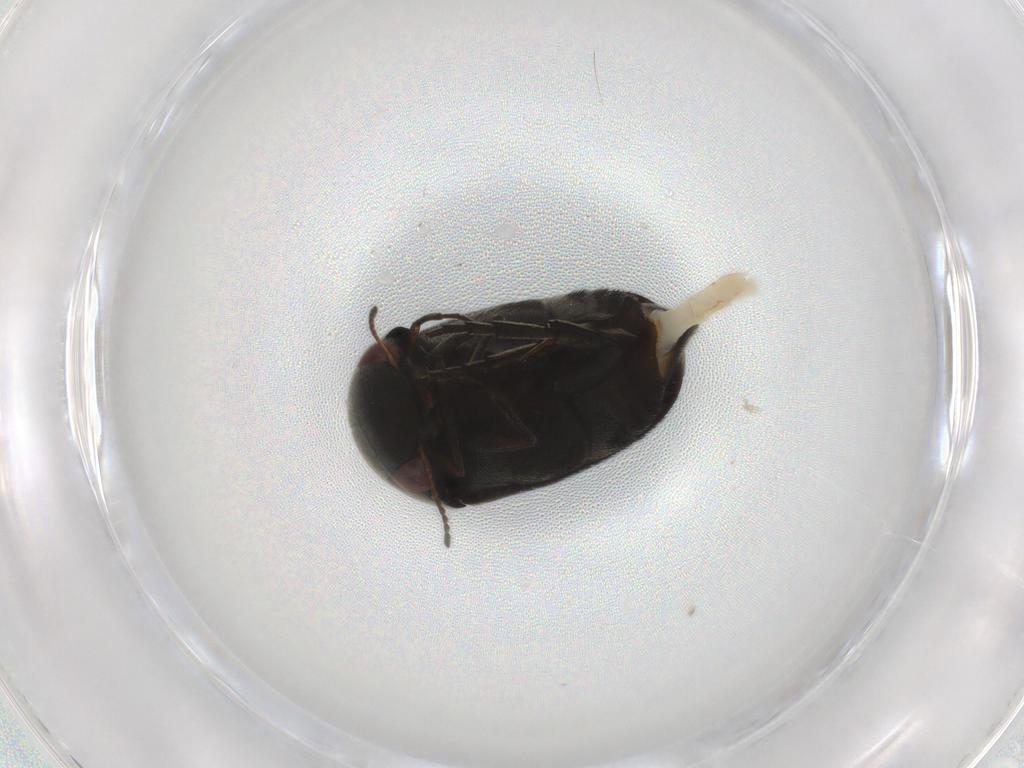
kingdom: Animalia
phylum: Arthropoda
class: Insecta
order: Coleoptera
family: Mordellidae
